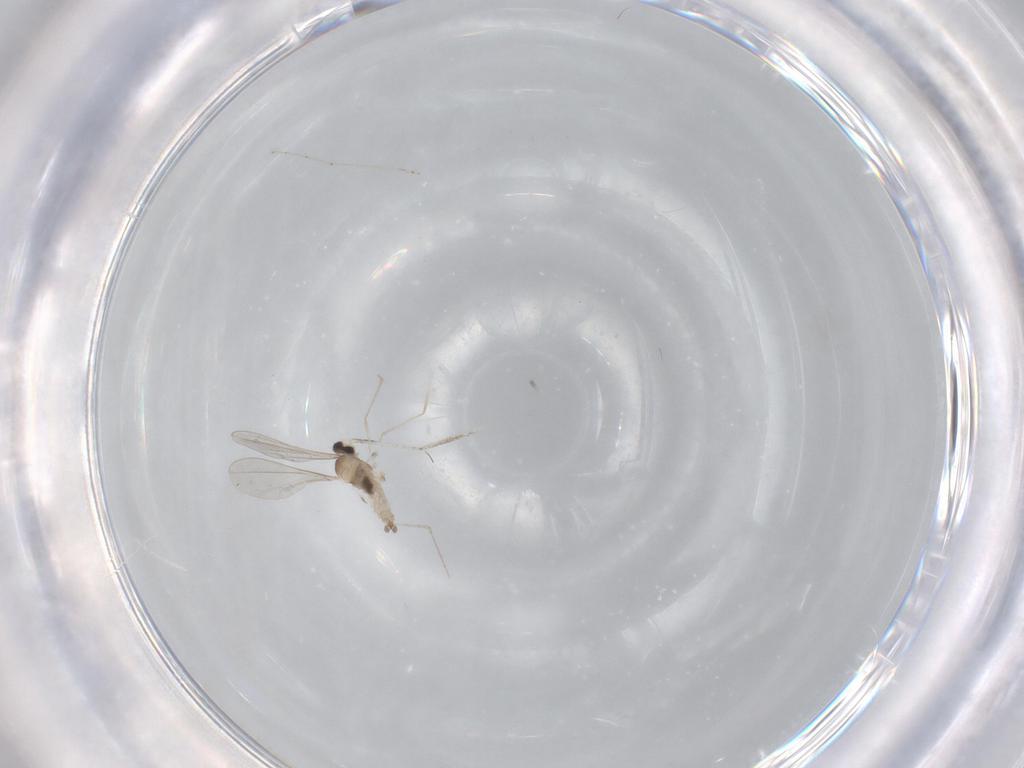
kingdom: Animalia
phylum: Arthropoda
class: Insecta
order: Diptera
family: Cecidomyiidae
